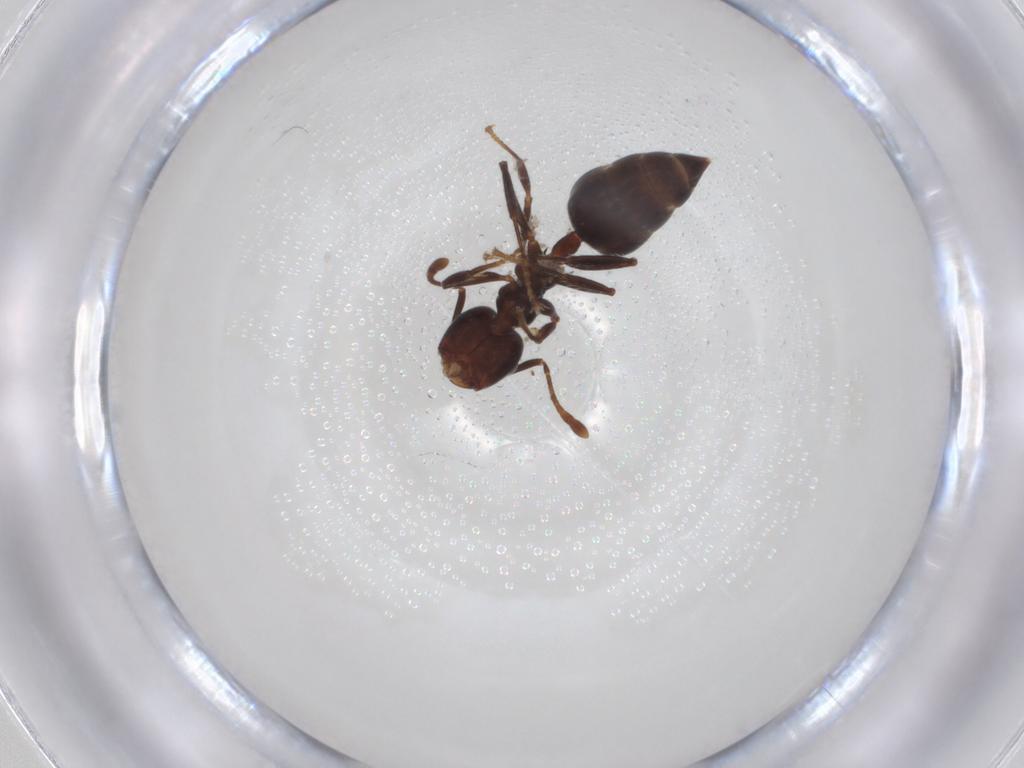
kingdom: Animalia
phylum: Arthropoda
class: Insecta
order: Hymenoptera
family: Formicidae
